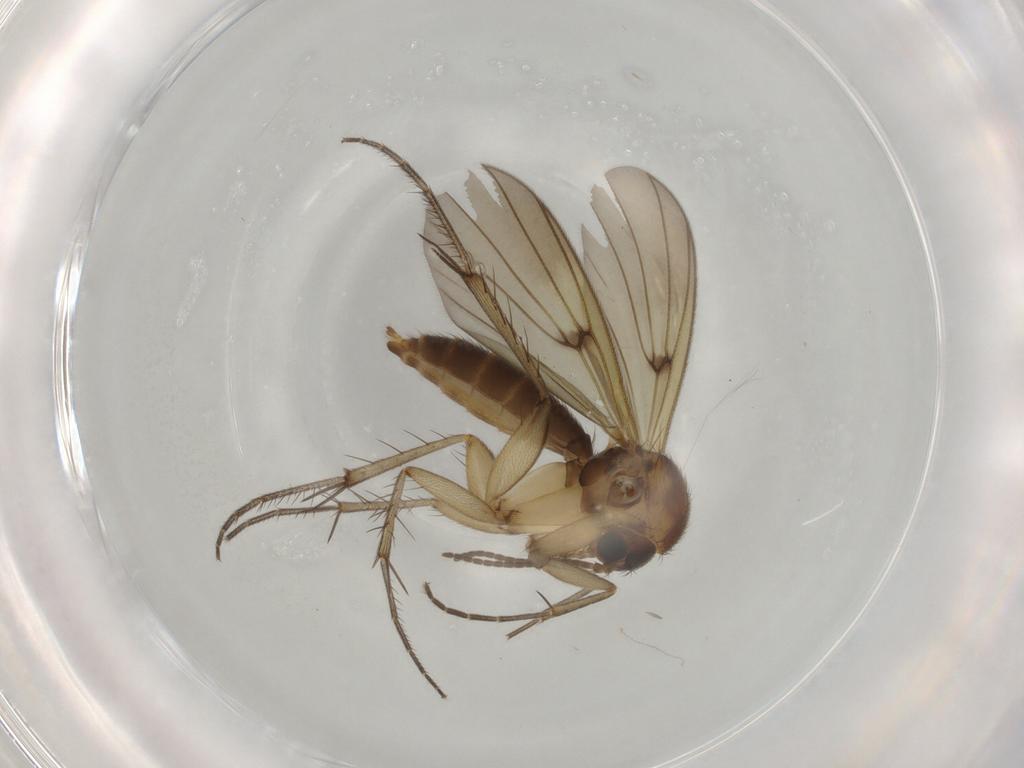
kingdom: Animalia
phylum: Arthropoda
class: Insecta
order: Diptera
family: Mycetophilidae
